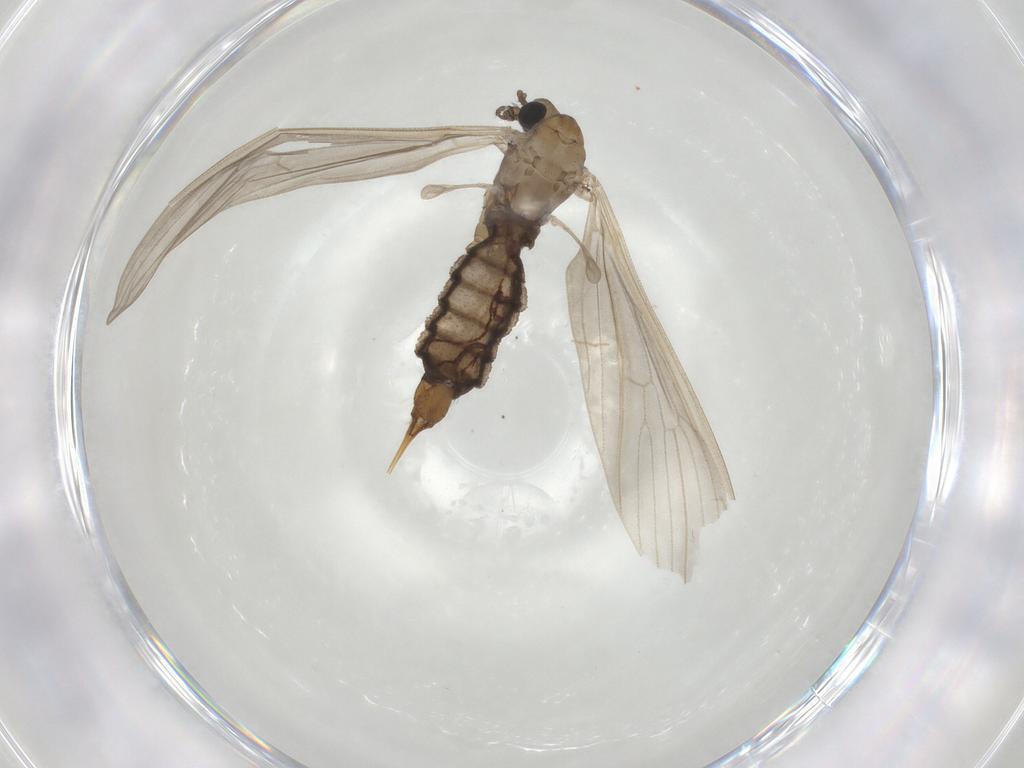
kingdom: Animalia
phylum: Arthropoda
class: Insecta
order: Diptera
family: Limoniidae
